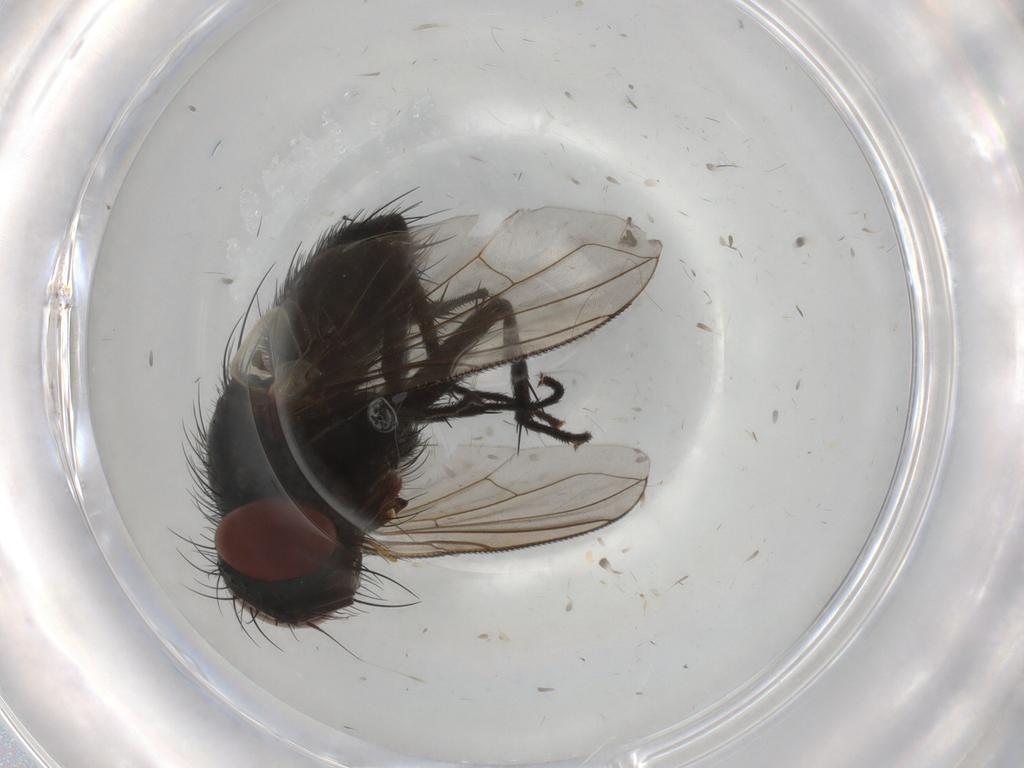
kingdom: Animalia
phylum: Arthropoda
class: Insecta
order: Diptera
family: Tachinidae
